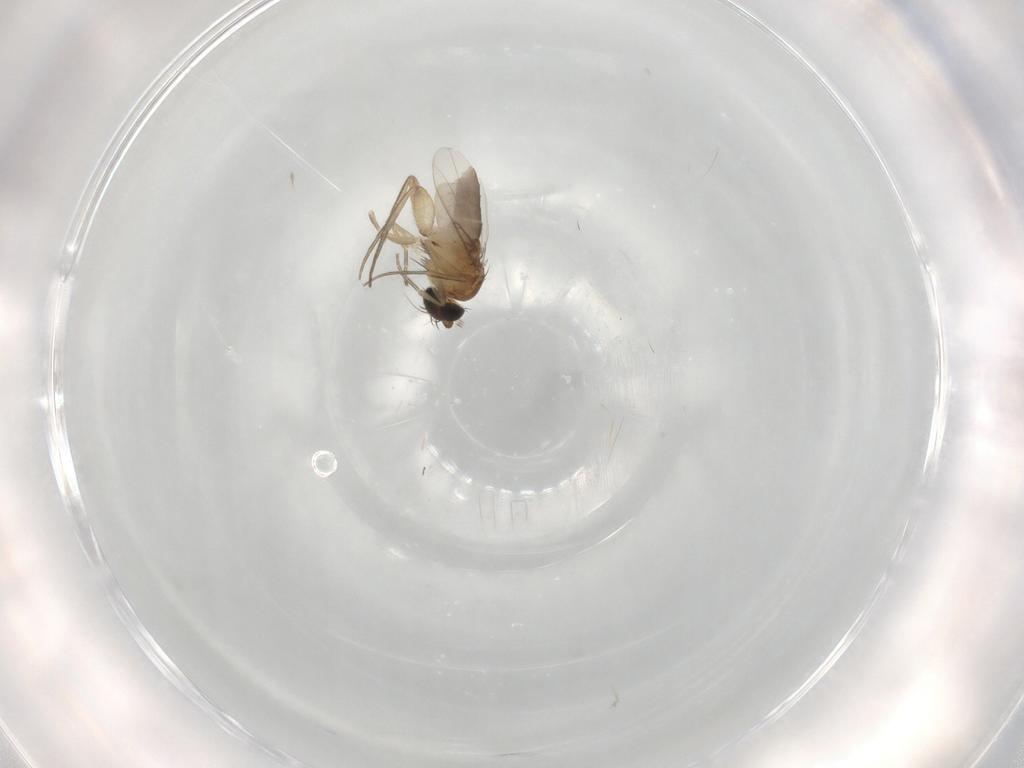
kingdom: Animalia
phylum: Arthropoda
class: Insecta
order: Diptera
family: Phoridae
